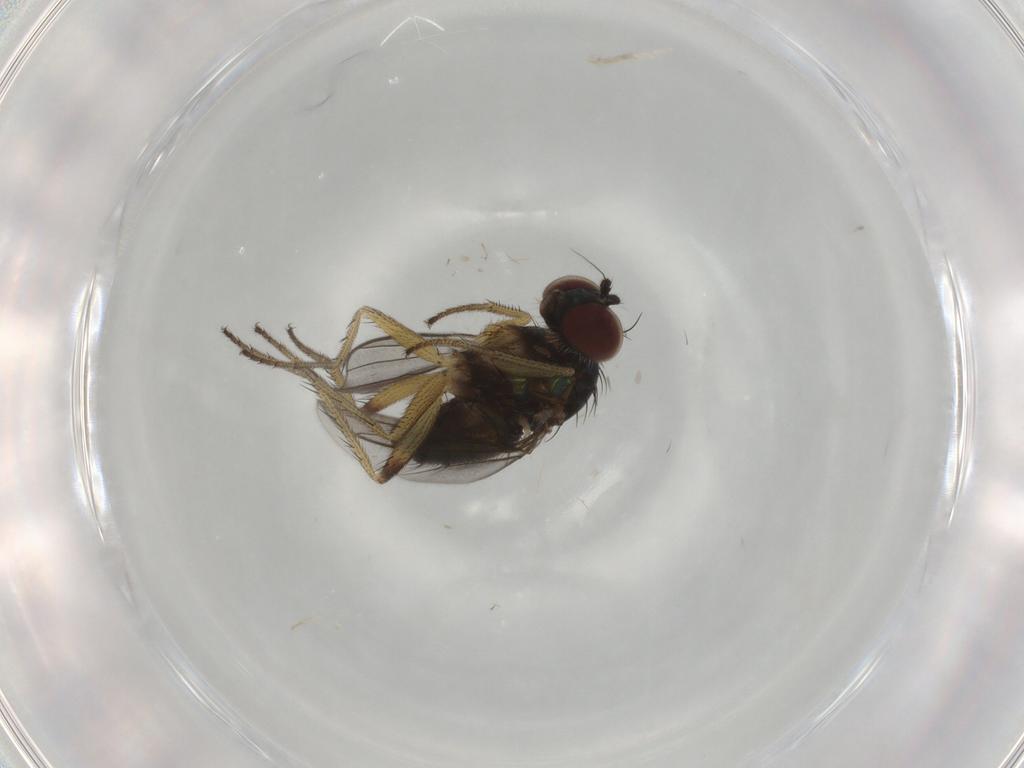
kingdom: Animalia
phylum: Arthropoda
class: Insecta
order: Diptera
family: Dolichopodidae
